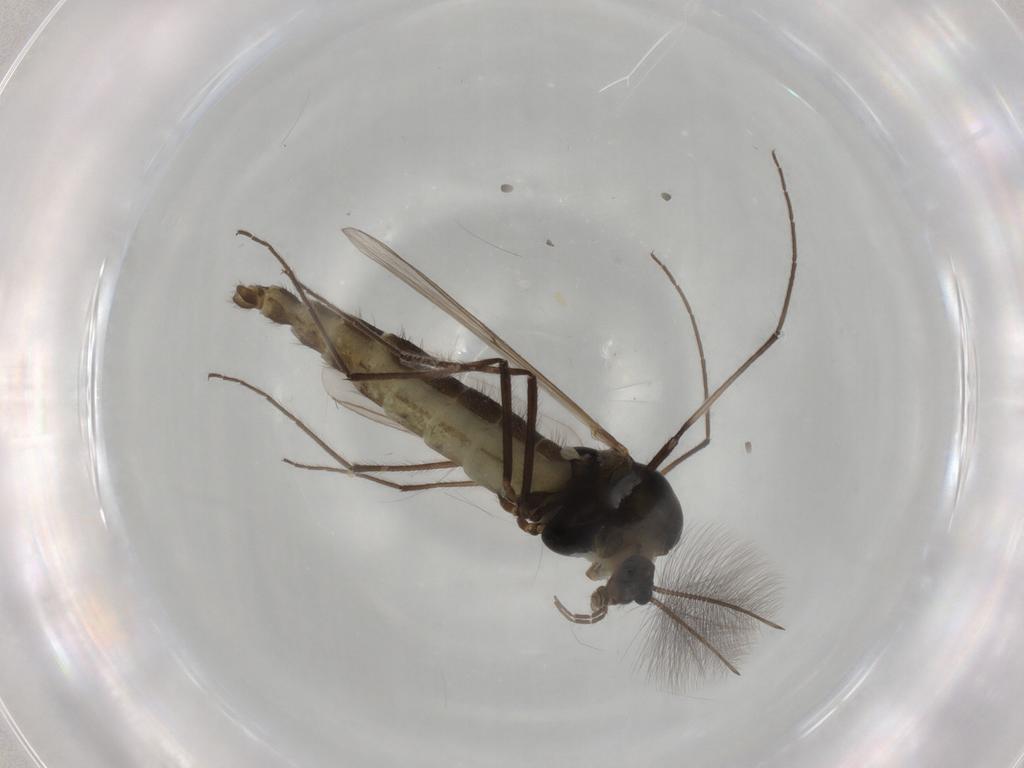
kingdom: Animalia
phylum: Arthropoda
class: Insecta
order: Diptera
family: Chironomidae
